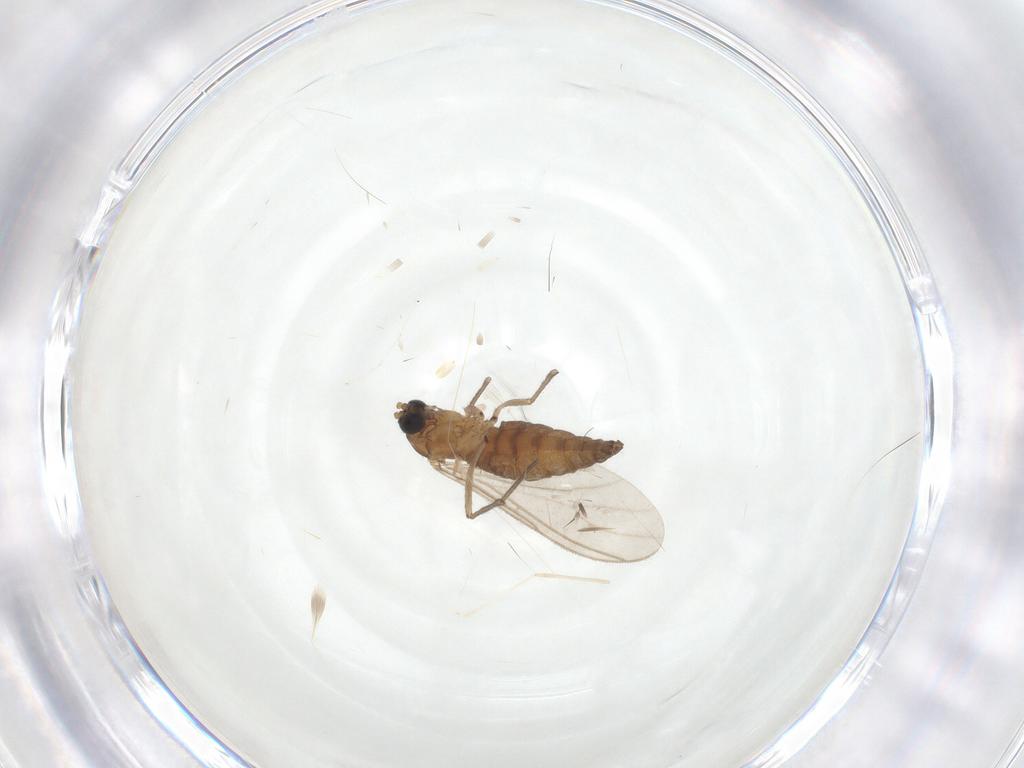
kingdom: Animalia
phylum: Arthropoda
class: Insecta
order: Diptera
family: Sciaridae
